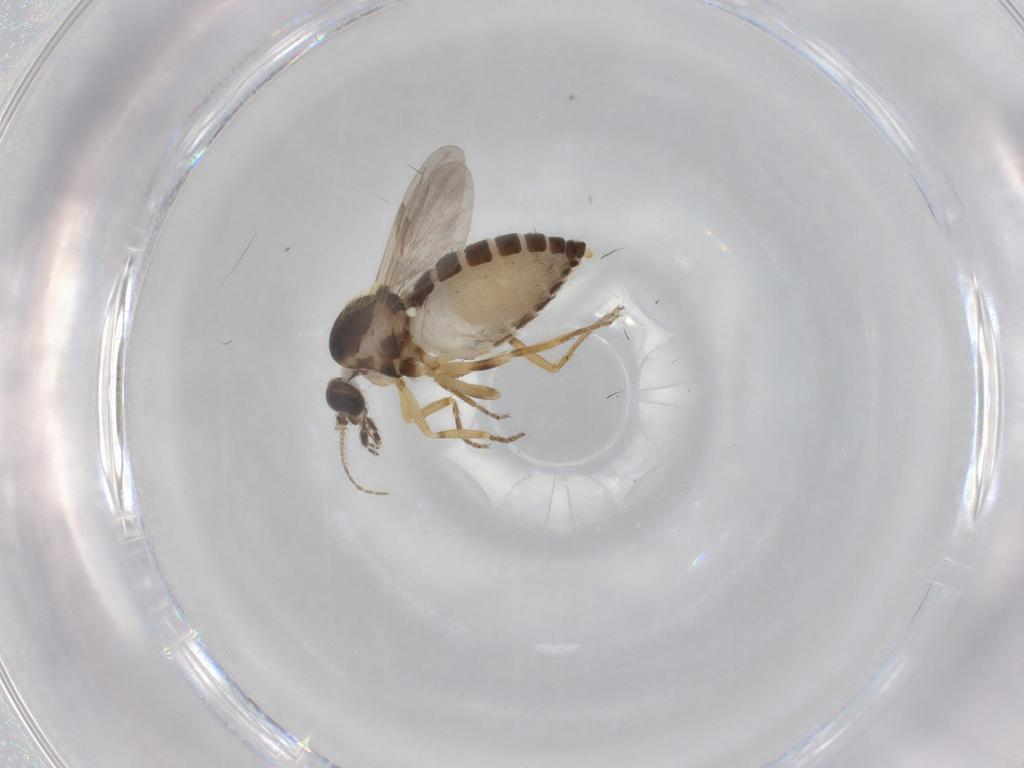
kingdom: Animalia
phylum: Arthropoda
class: Insecta
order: Diptera
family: Ceratopogonidae
